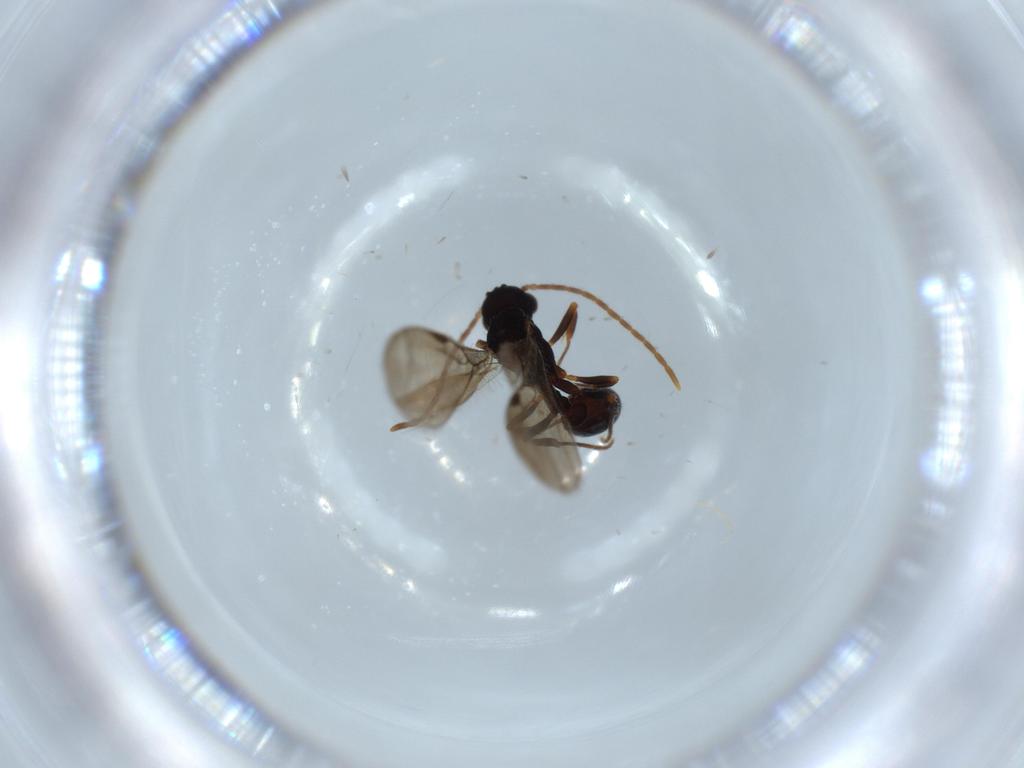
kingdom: Animalia
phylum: Arthropoda
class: Insecta
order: Hymenoptera
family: Formicidae
